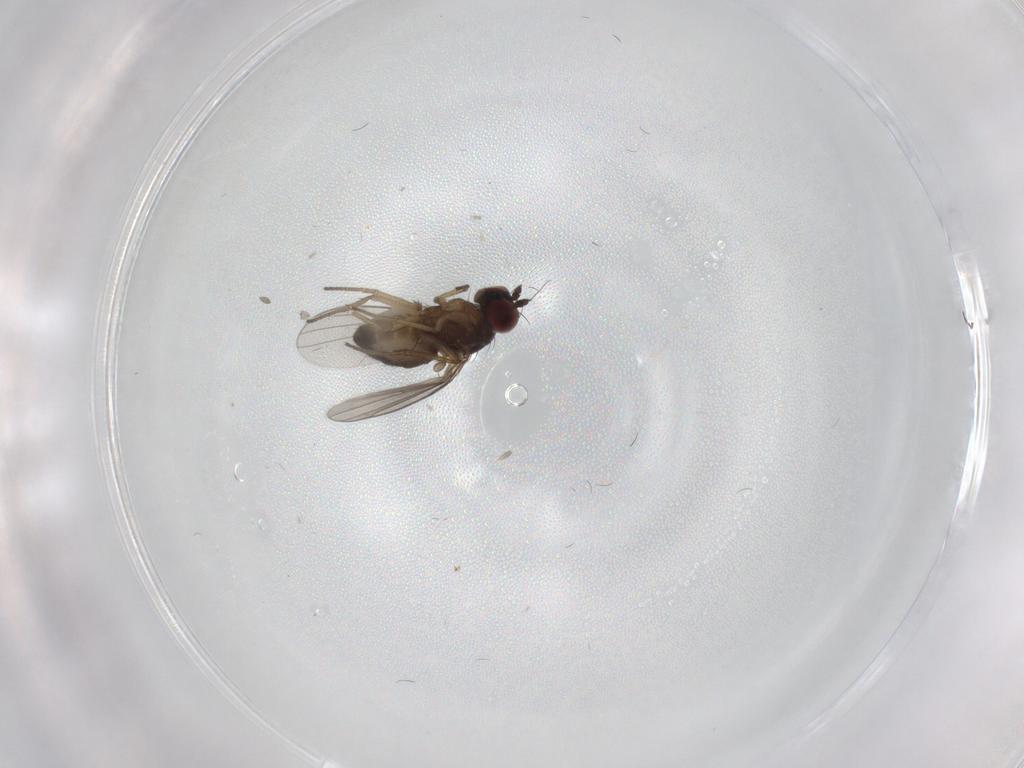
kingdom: Animalia
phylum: Arthropoda
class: Insecta
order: Diptera
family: Dolichopodidae
